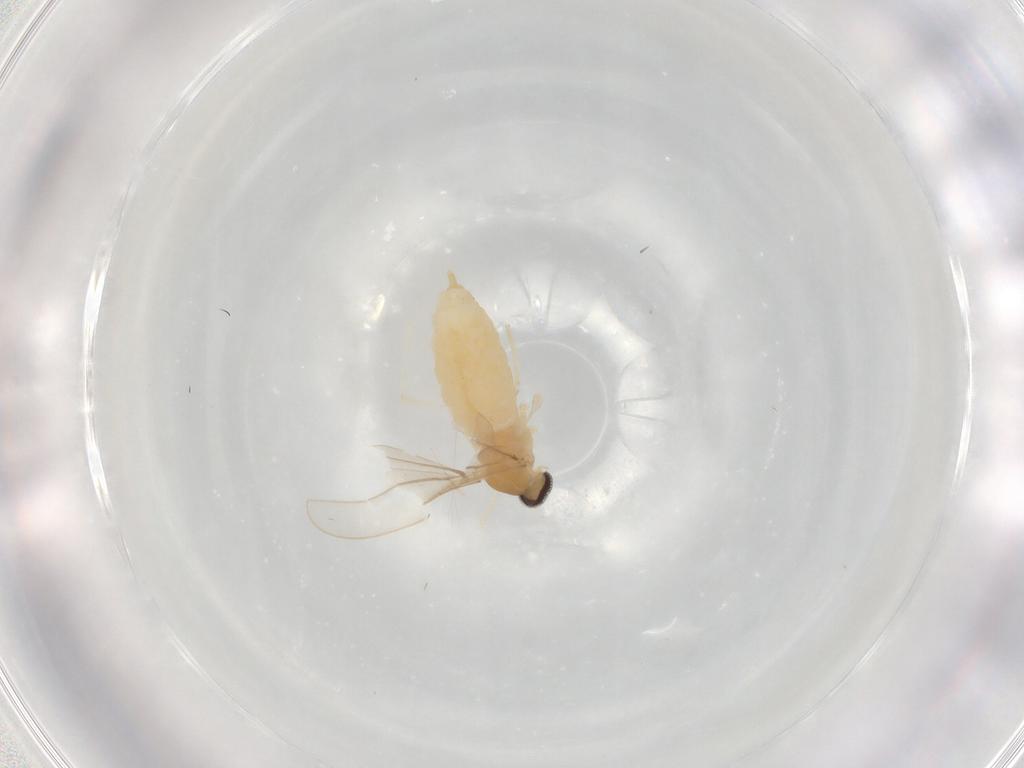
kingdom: Animalia
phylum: Arthropoda
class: Insecta
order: Diptera
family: Cecidomyiidae
